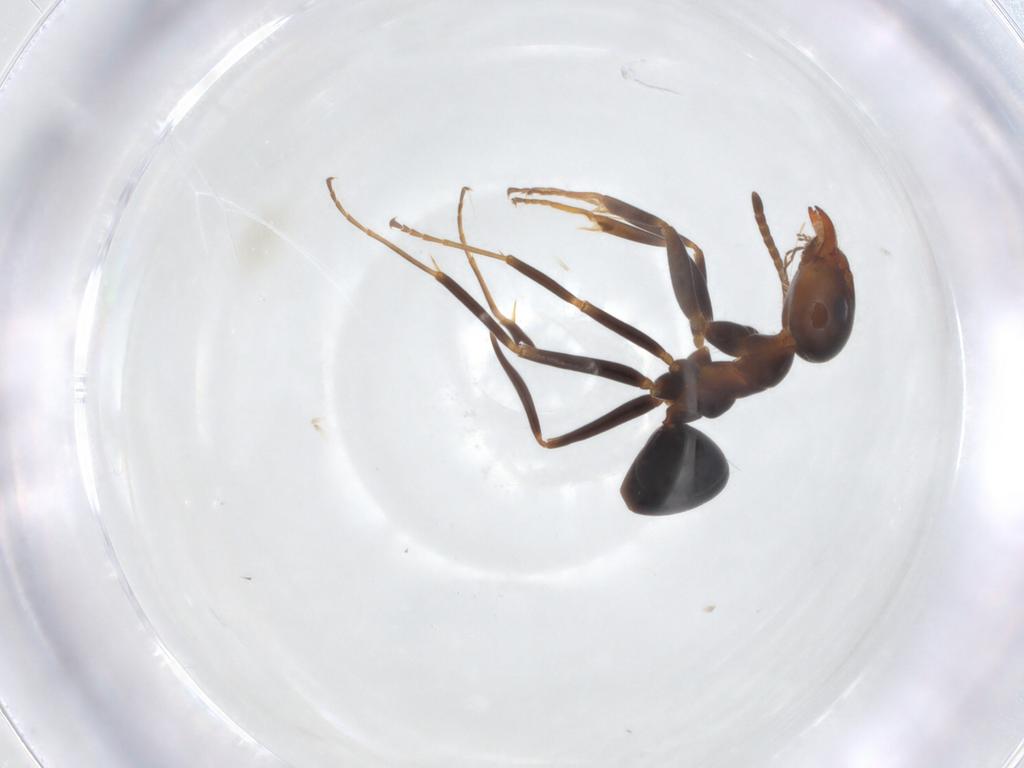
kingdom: Animalia
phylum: Arthropoda
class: Insecta
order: Hymenoptera
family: Formicidae
